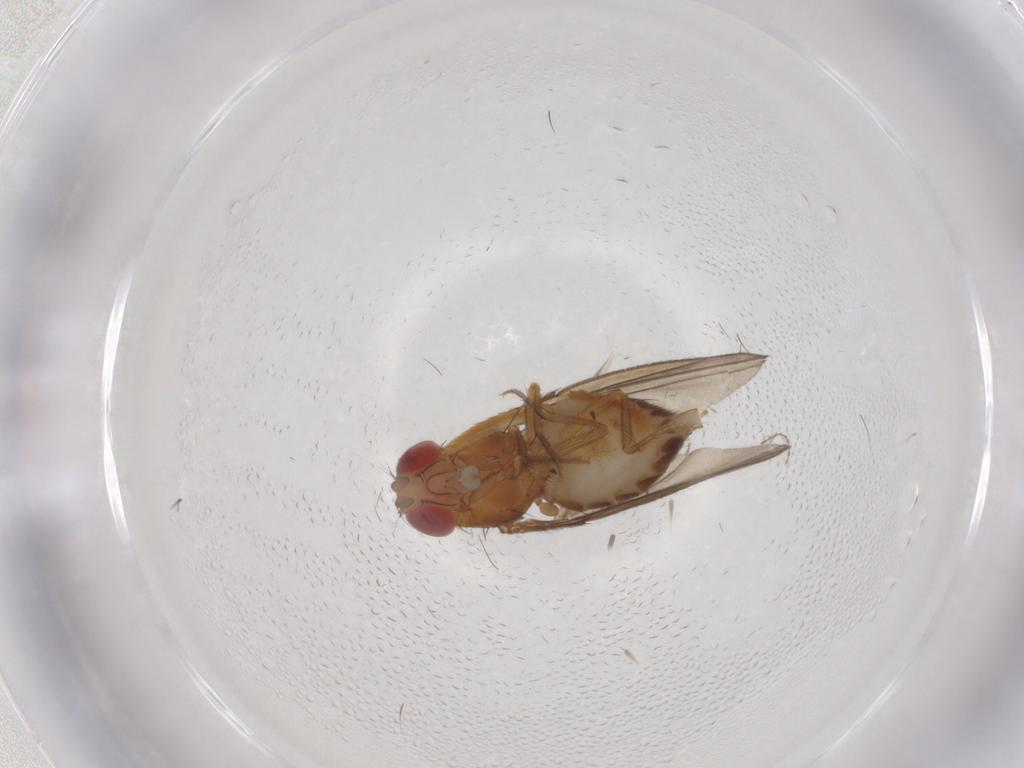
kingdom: Animalia
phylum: Arthropoda
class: Insecta
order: Diptera
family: Drosophilidae
